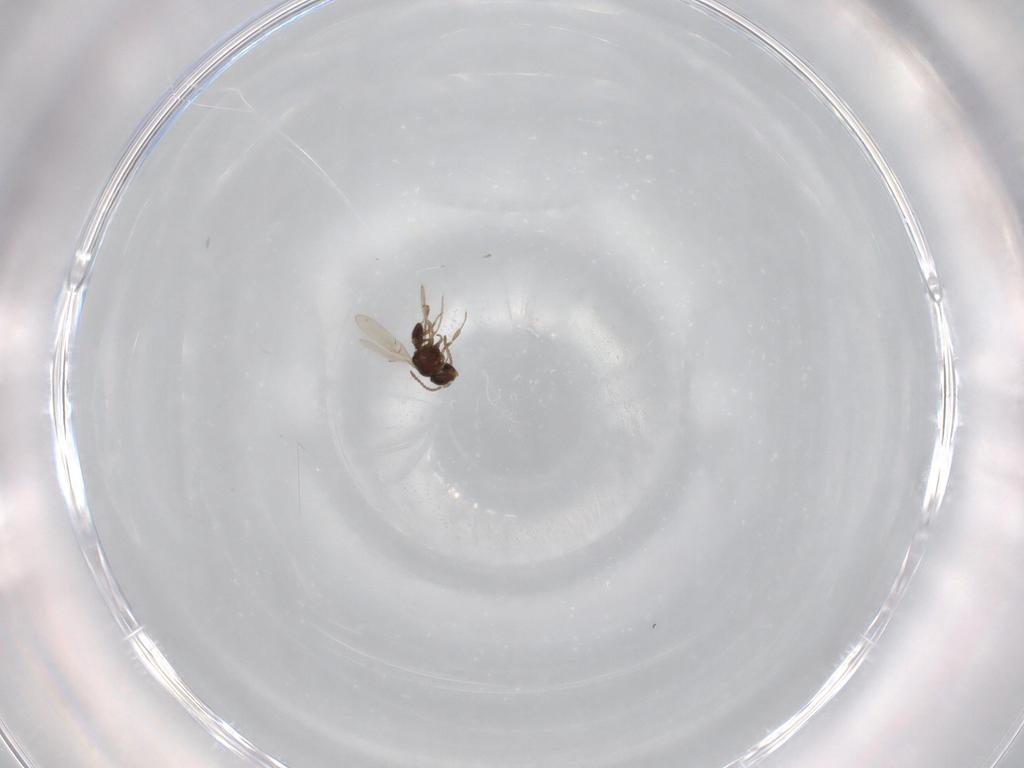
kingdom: Animalia
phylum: Arthropoda
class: Insecta
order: Hymenoptera
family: Scelionidae
